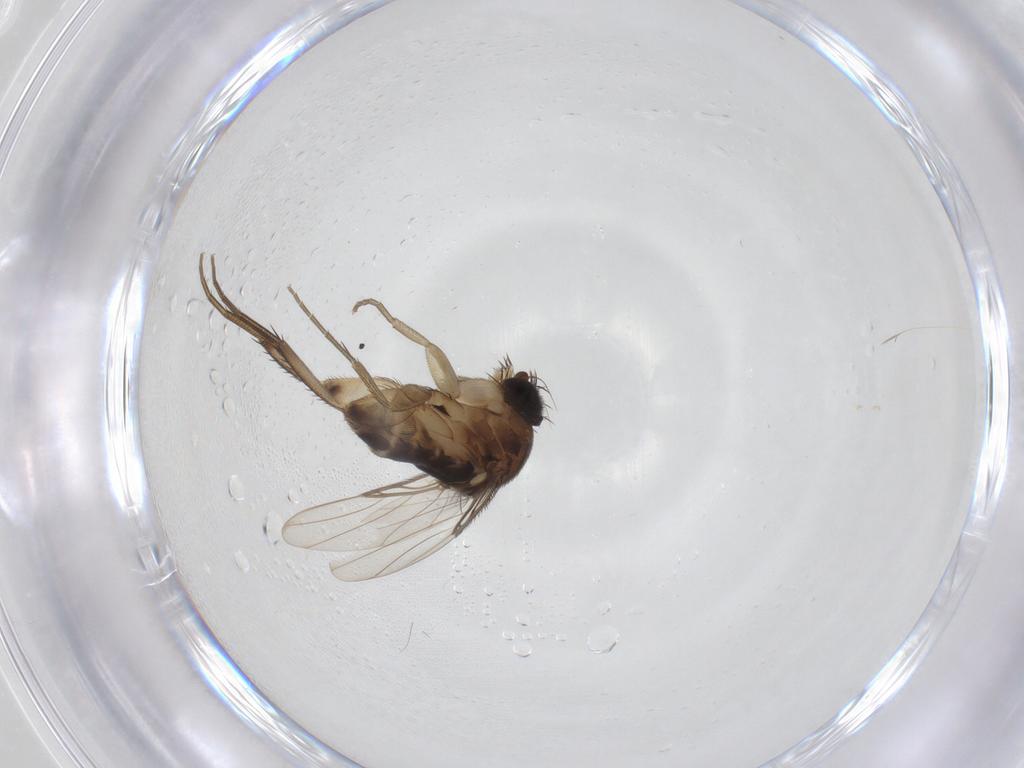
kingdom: Animalia
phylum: Arthropoda
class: Insecta
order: Diptera
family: Phoridae
